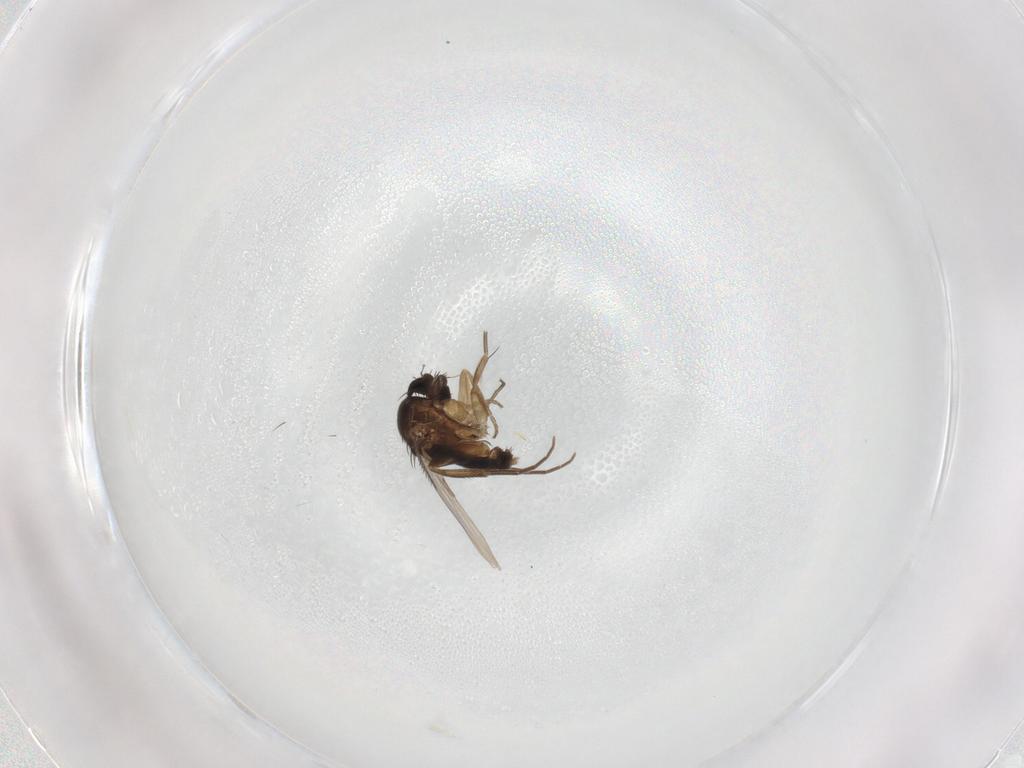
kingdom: Animalia
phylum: Arthropoda
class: Insecta
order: Diptera
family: Phoridae
